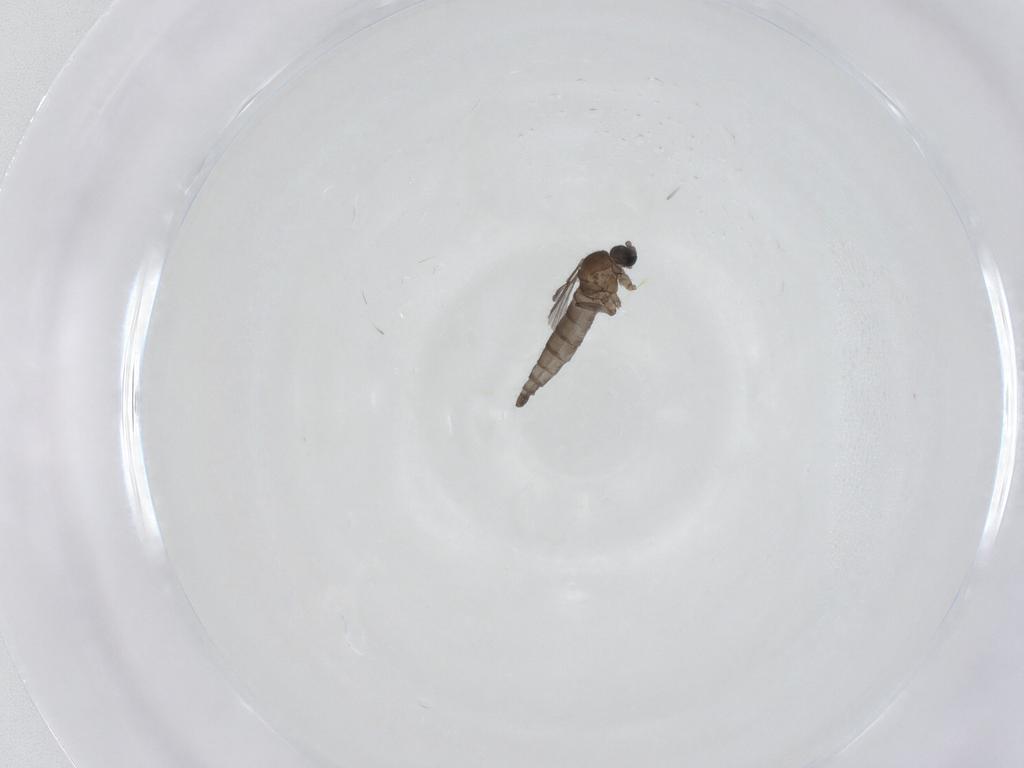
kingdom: Animalia
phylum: Arthropoda
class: Insecta
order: Diptera
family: Sciaridae
